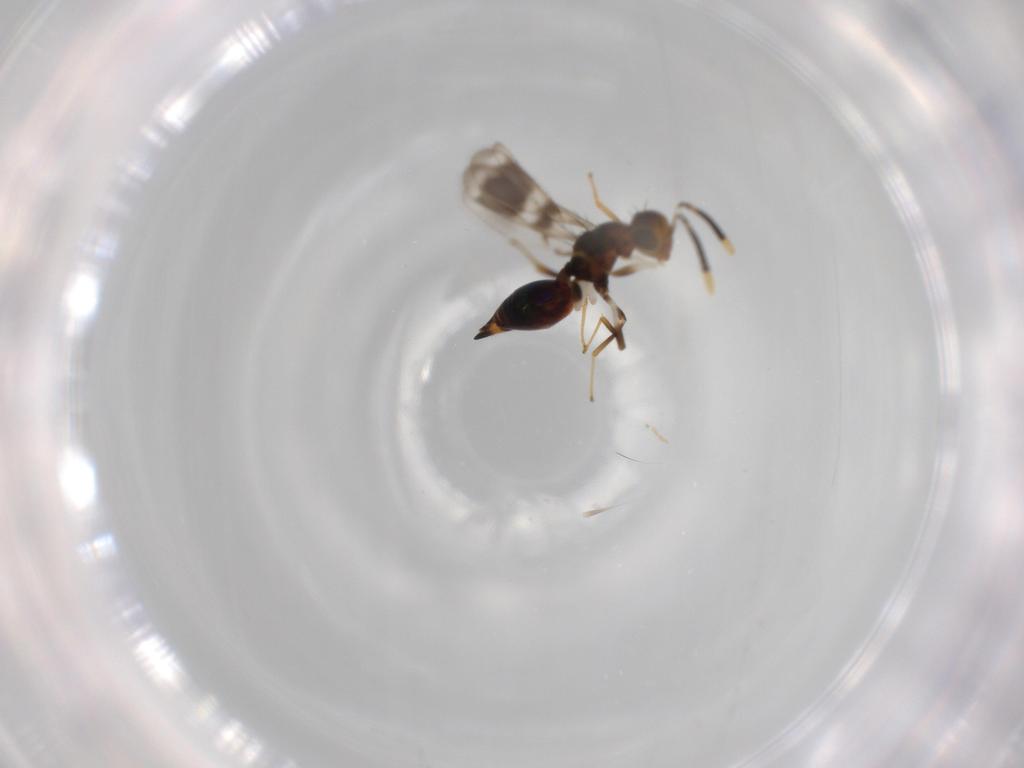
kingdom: Animalia
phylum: Arthropoda
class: Insecta
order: Hymenoptera
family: Diparidae
